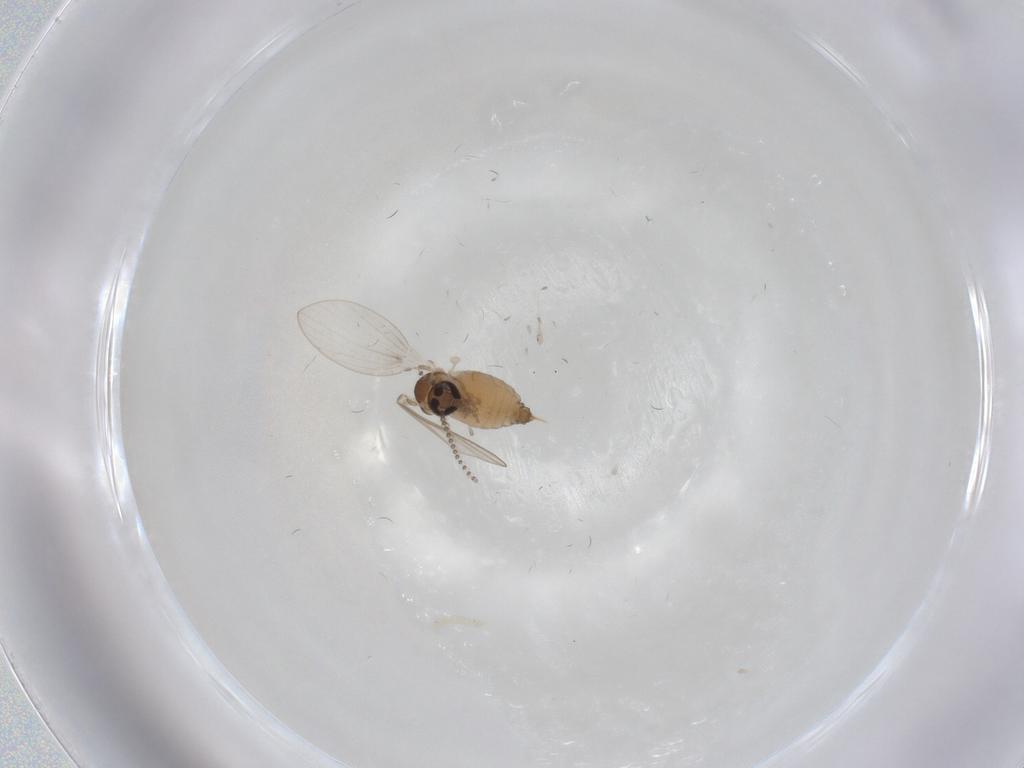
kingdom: Animalia
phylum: Arthropoda
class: Insecta
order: Diptera
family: Psychodidae
